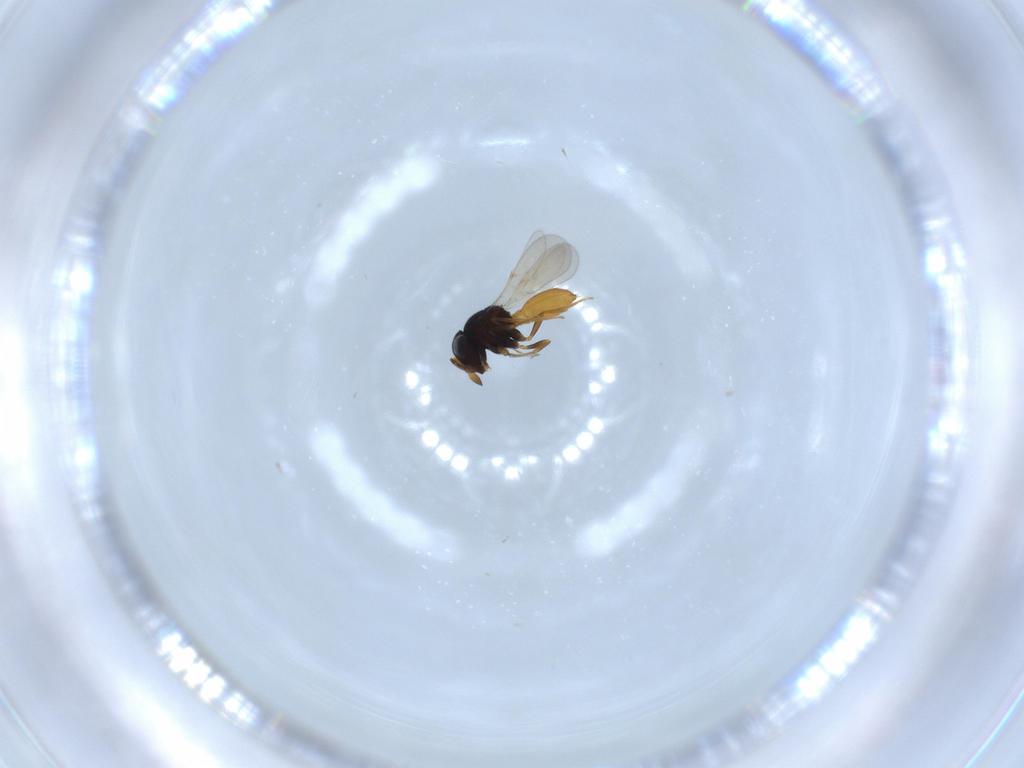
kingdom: Animalia
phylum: Arthropoda
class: Insecta
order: Hymenoptera
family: Scelionidae
